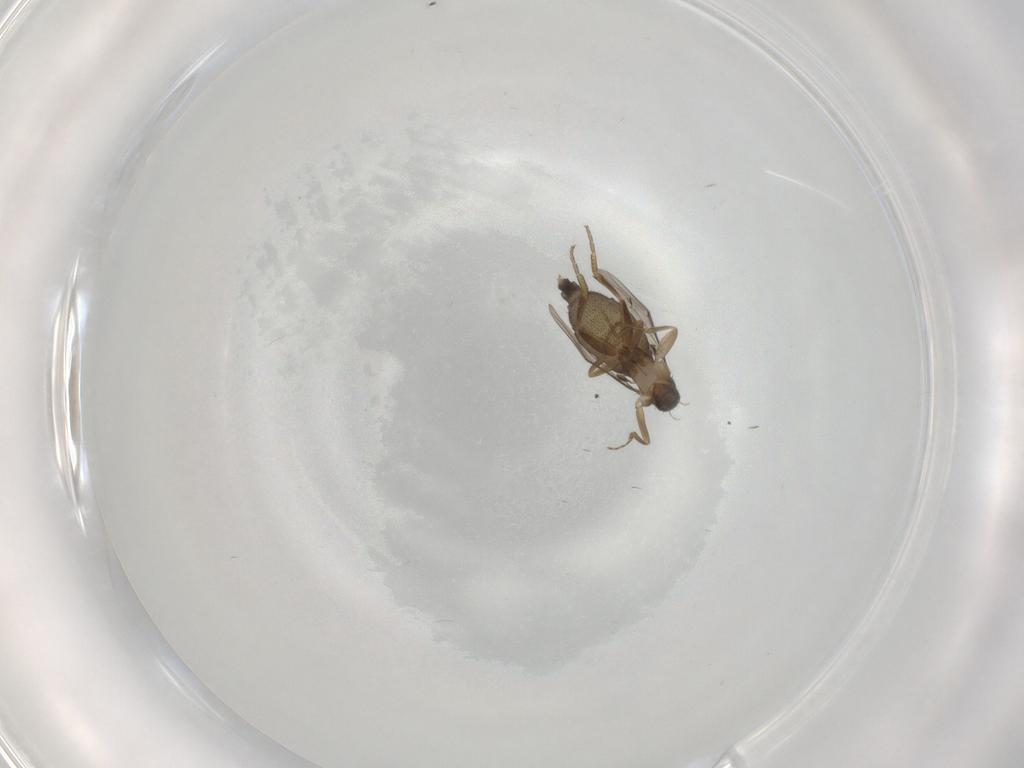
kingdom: Animalia
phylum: Arthropoda
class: Insecta
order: Diptera
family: Phoridae
